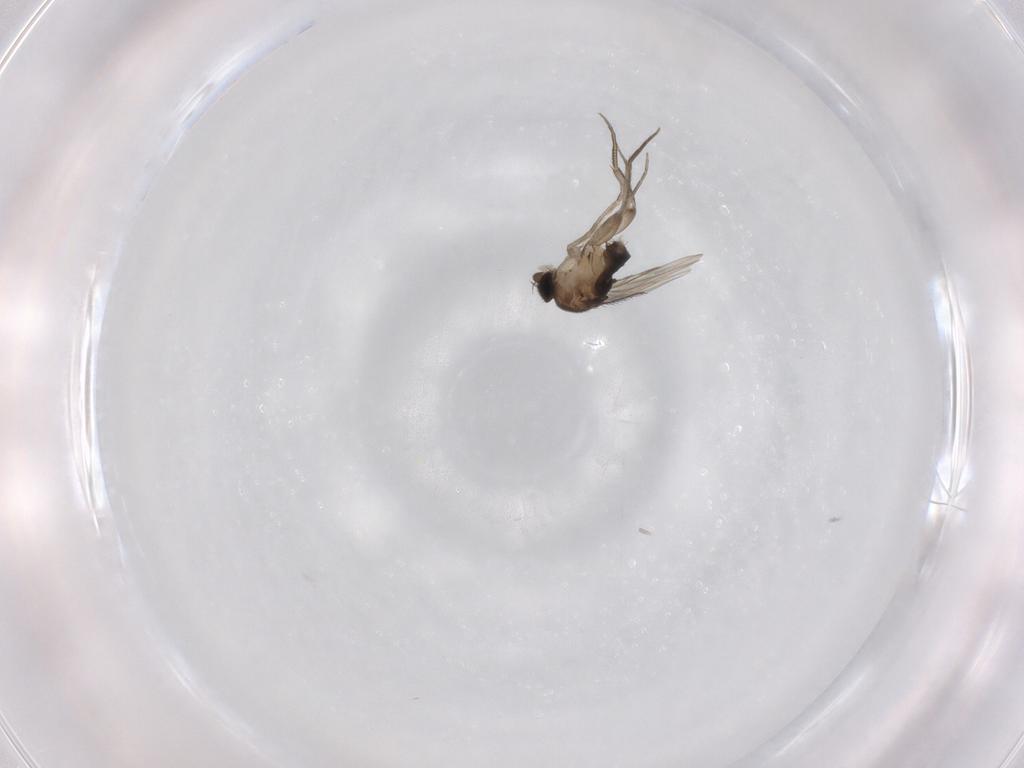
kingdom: Animalia
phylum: Arthropoda
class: Insecta
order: Diptera
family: Phoridae
